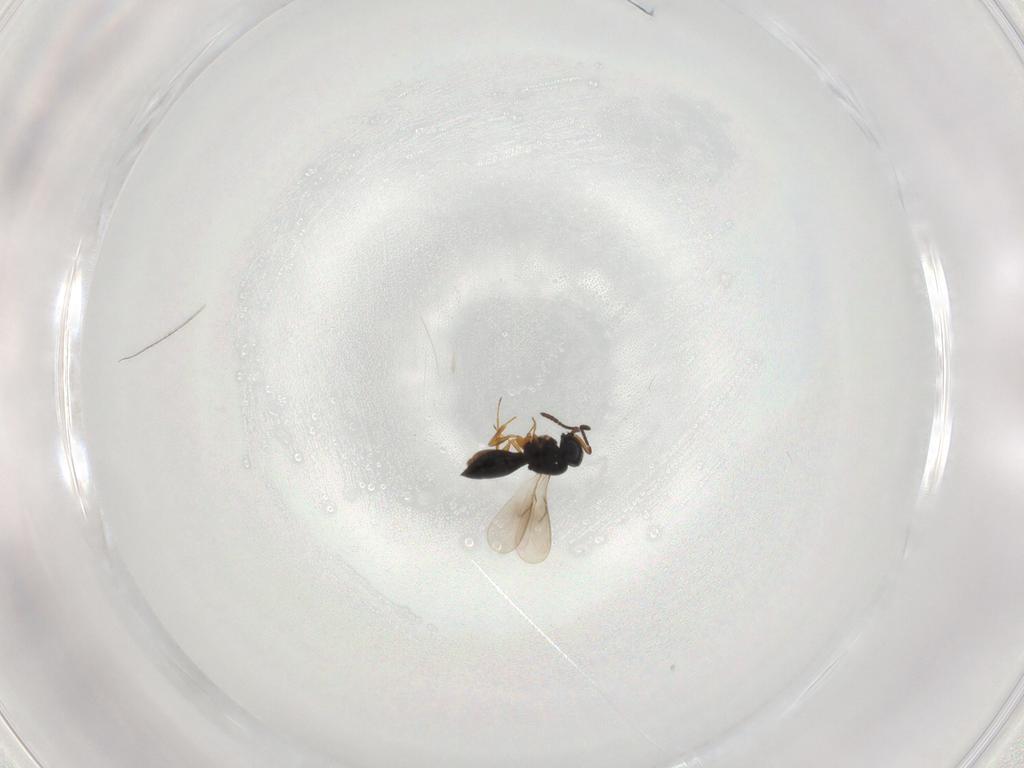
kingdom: Animalia
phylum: Arthropoda
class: Insecta
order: Hymenoptera
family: Scelionidae
